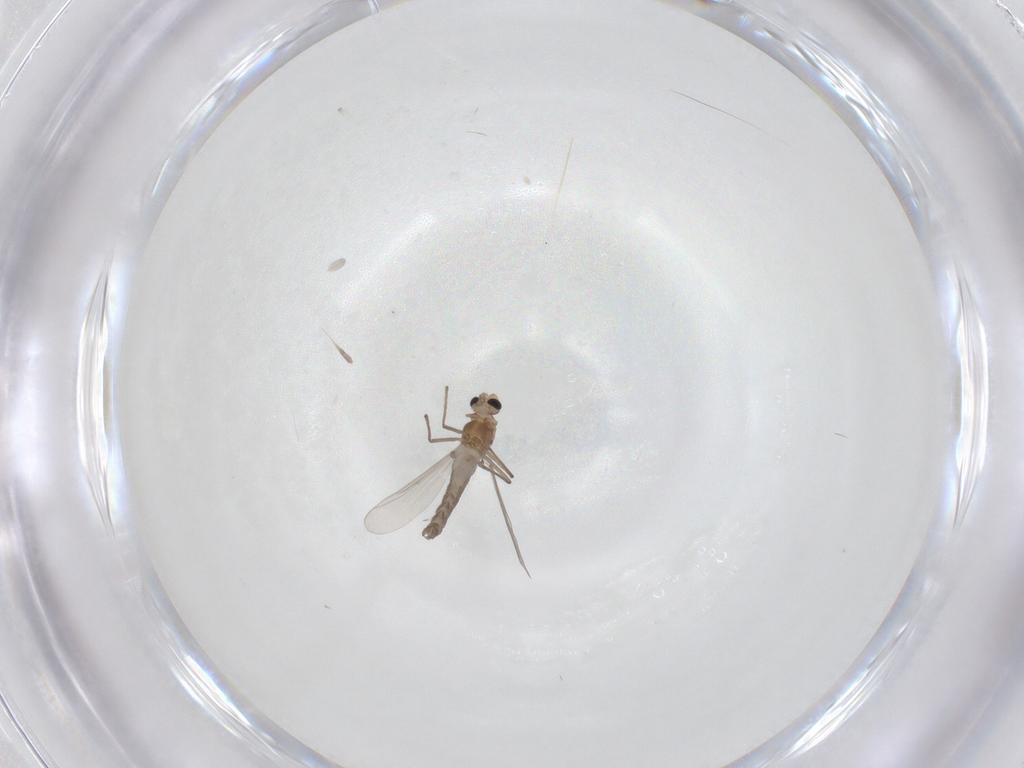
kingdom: Animalia
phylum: Arthropoda
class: Insecta
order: Diptera
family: Chironomidae
